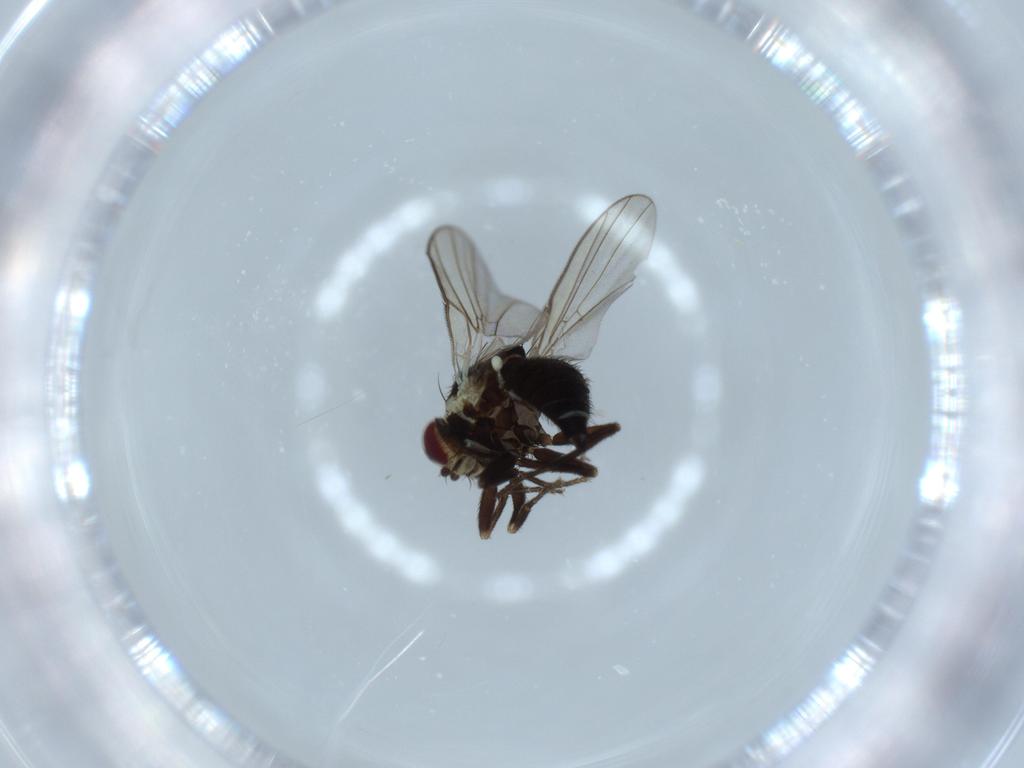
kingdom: Animalia
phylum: Arthropoda
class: Insecta
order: Diptera
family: Agromyzidae
